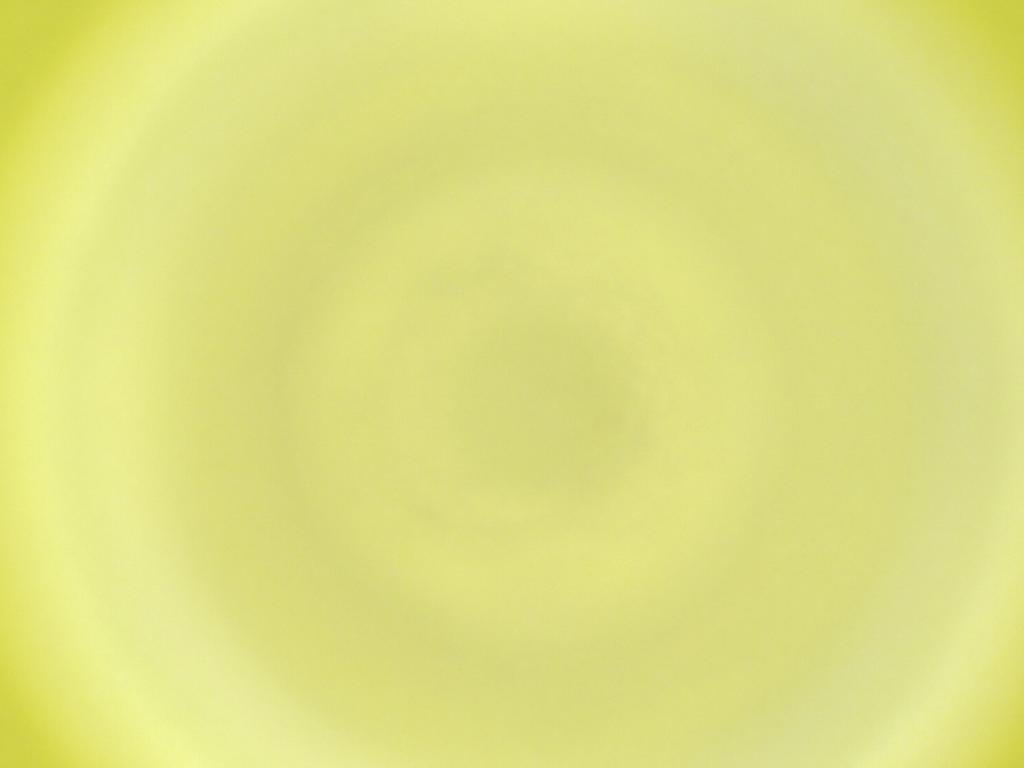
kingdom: Animalia
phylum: Arthropoda
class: Insecta
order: Diptera
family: Cecidomyiidae
